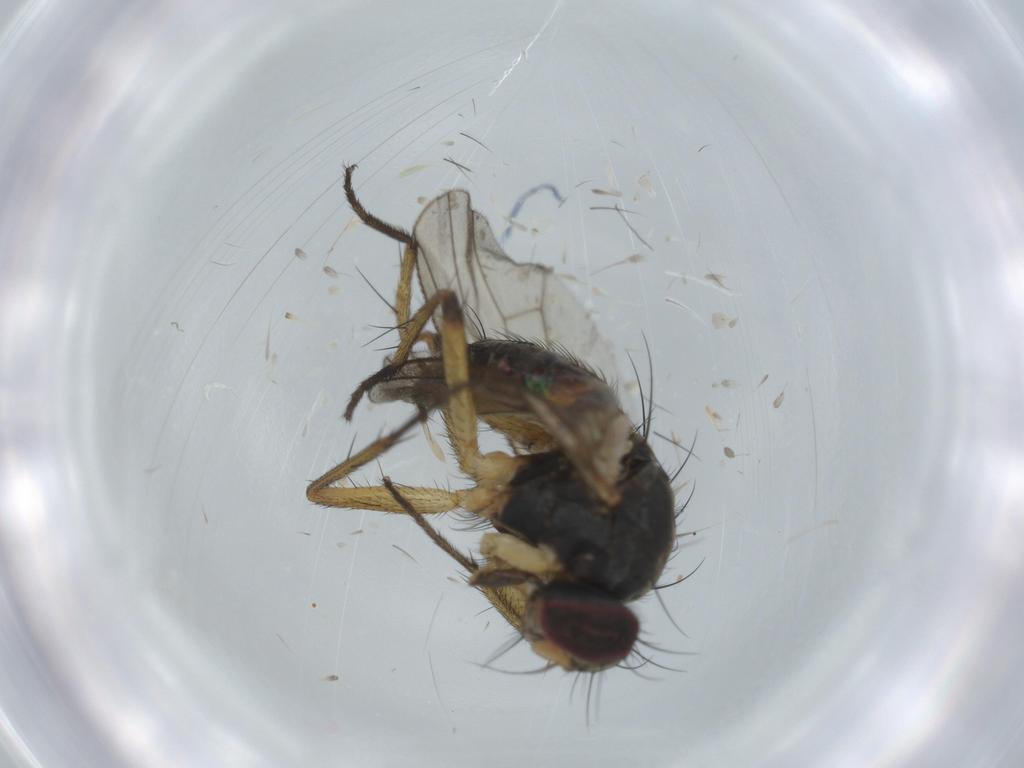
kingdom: Animalia
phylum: Arthropoda
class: Insecta
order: Diptera
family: Muscidae
